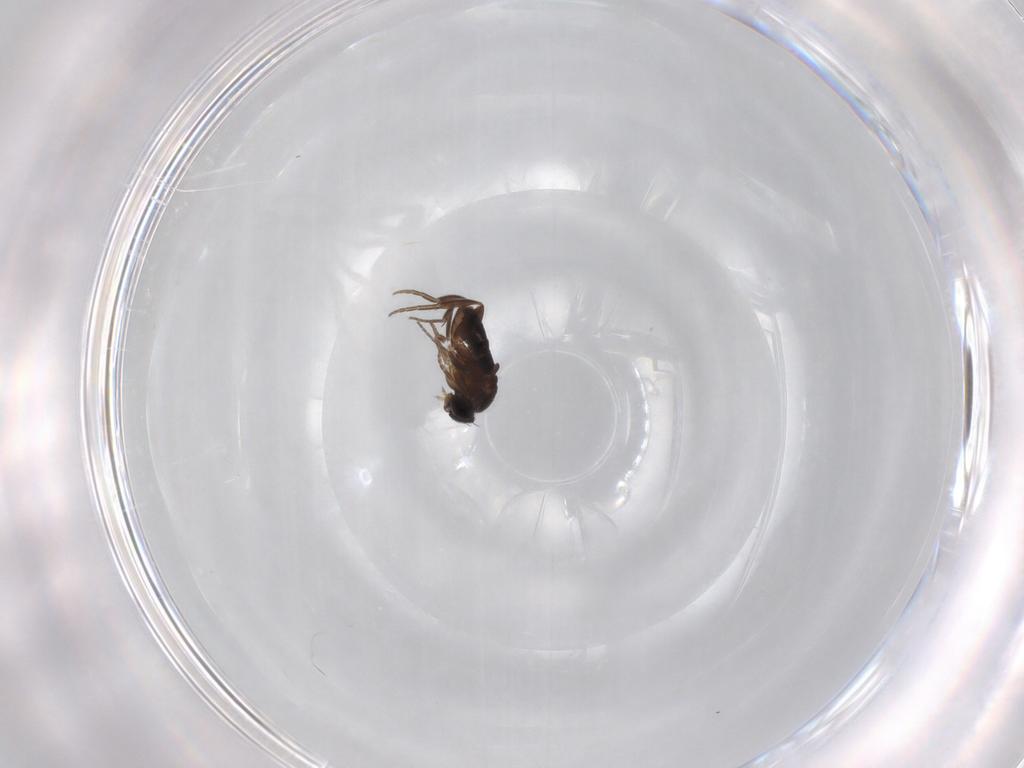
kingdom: Animalia
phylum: Arthropoda
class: Insecta
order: Diptera
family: Phoridae
